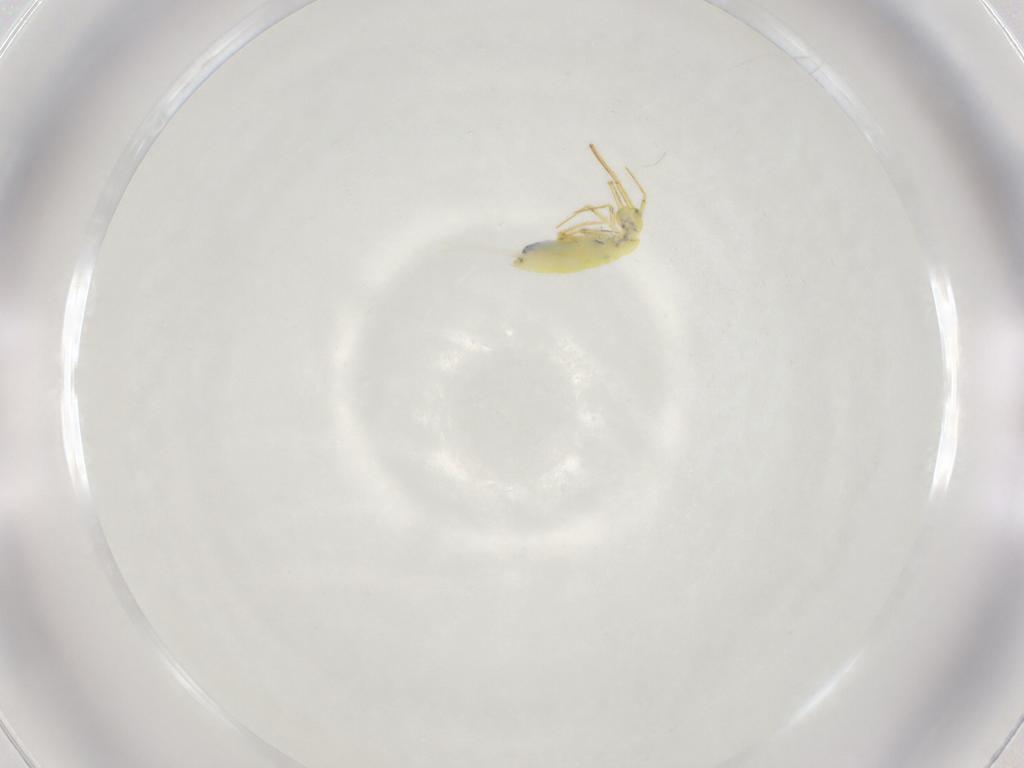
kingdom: Animalia
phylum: Arthropoda
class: Collembola
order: Entomobryomorpha
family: Entomobryidae
